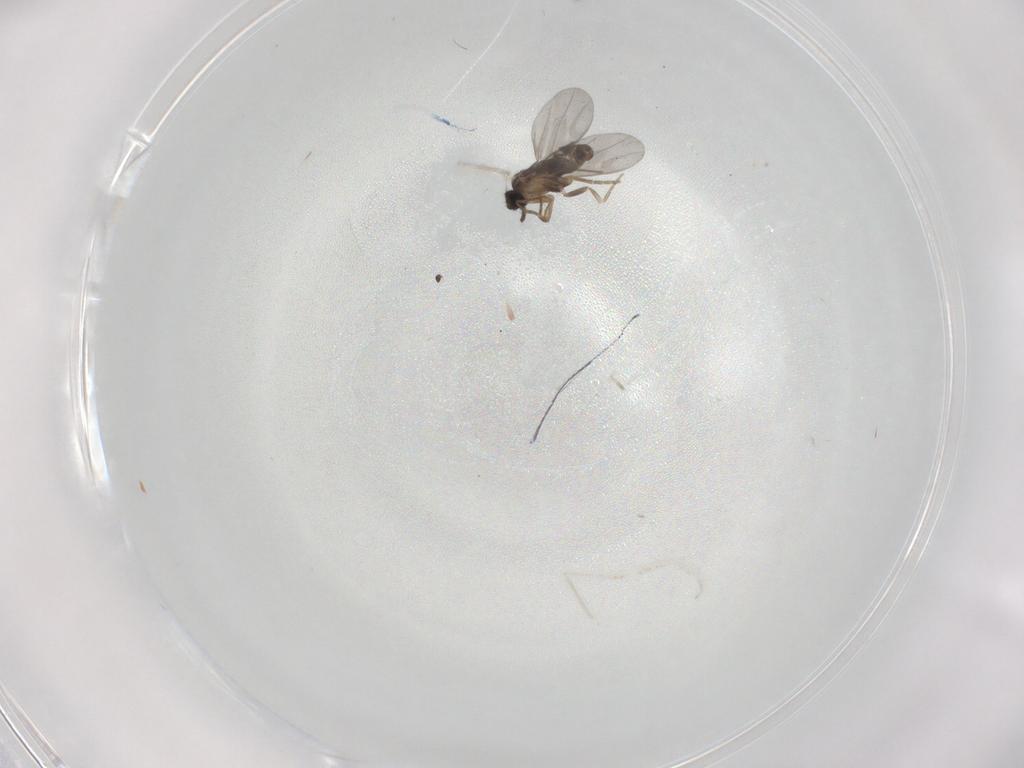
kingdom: Animalia
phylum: Arthropoda
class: Insecta
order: Diptera
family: Cecidomyiidae
